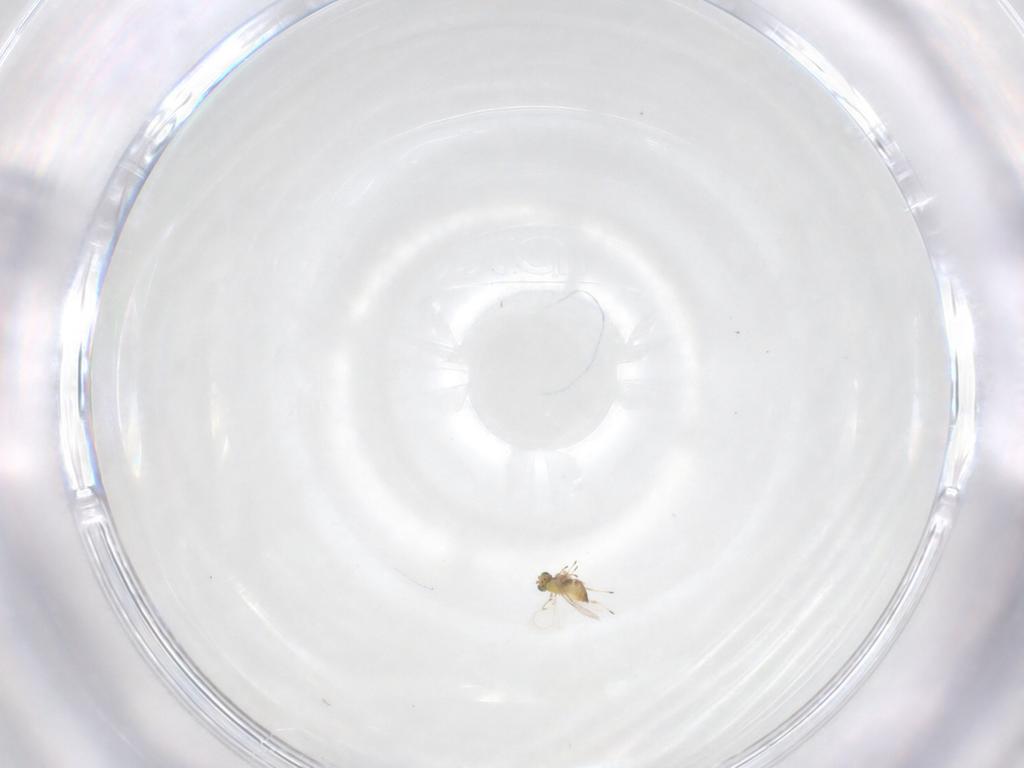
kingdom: Animalia
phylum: Arthropoda
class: Insecta
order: Hymenoptera
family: Trichogrammatidae
